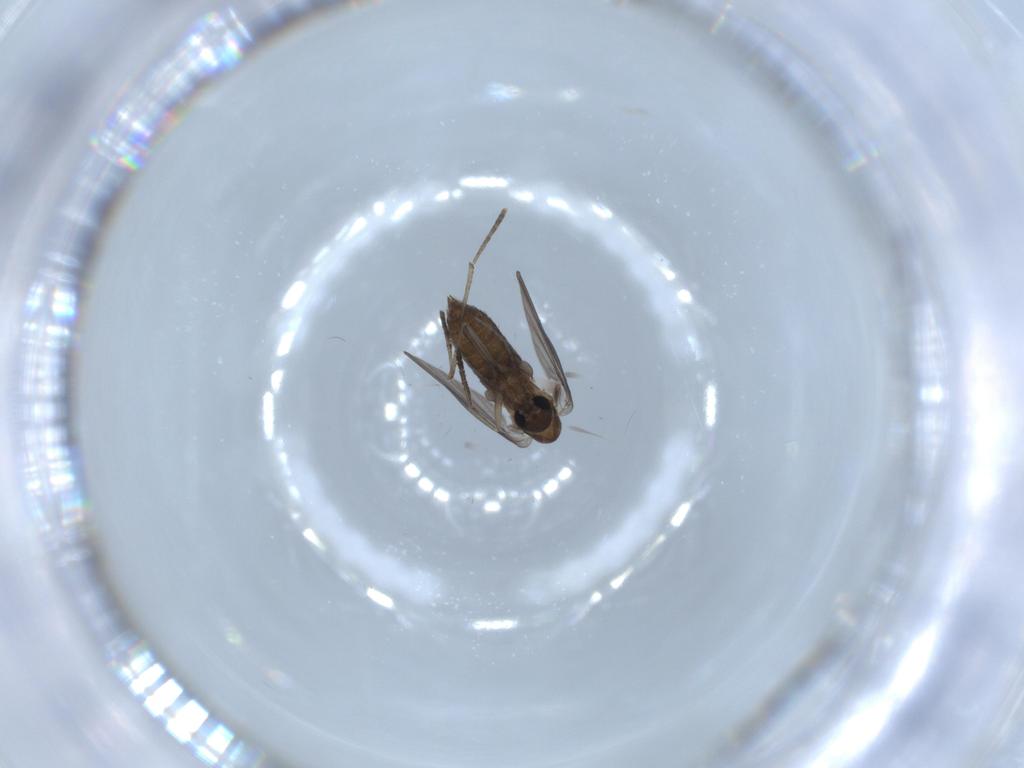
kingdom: Animalia
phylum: Arthropoda
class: Insecta
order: Diptera
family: Psychodidae
